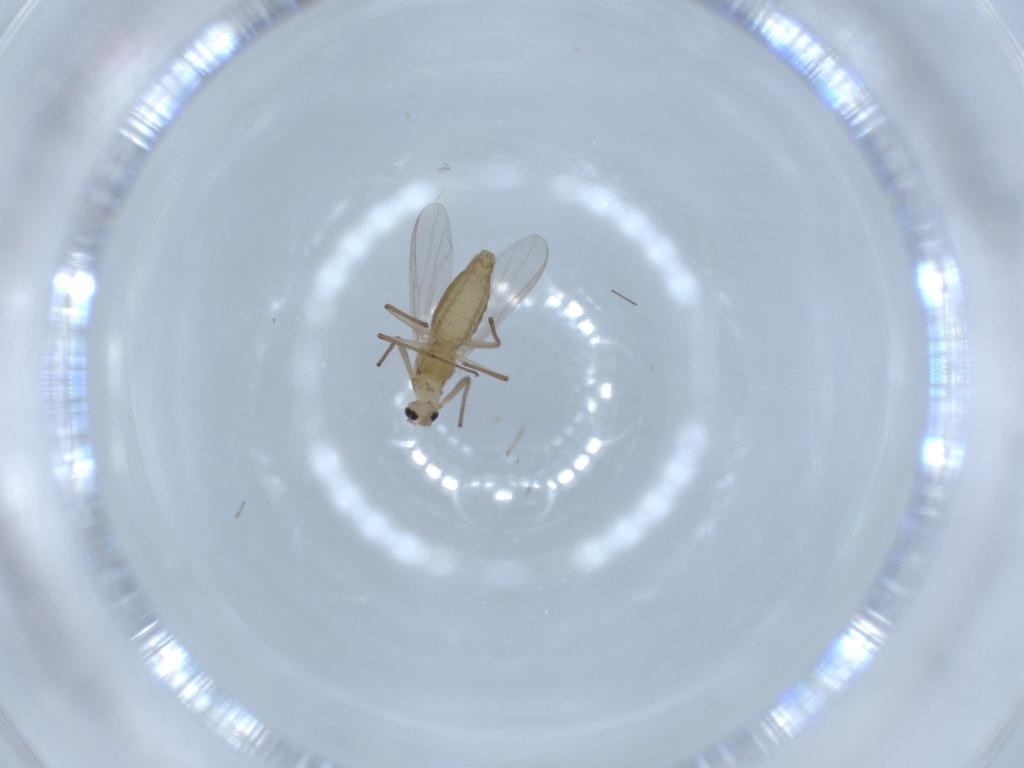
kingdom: Animalia
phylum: Arthropoda
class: Insecta
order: Diptera
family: Chironomidae
